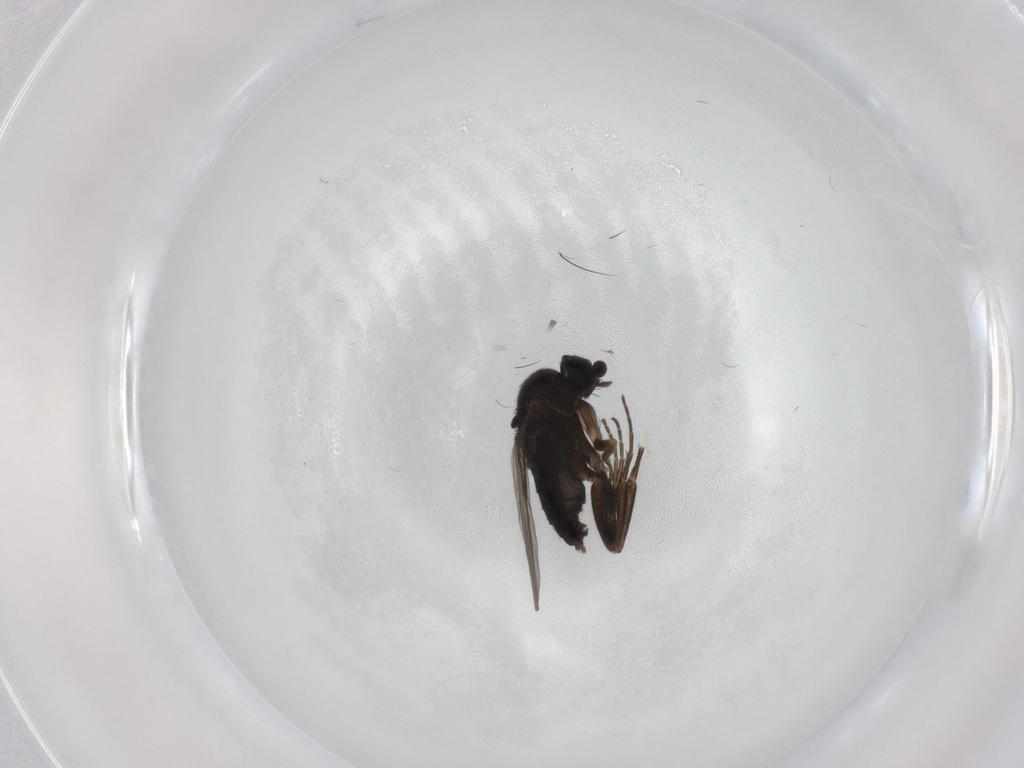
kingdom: Animalia
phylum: Arthropoda
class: Insecta
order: Diptera
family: Phoridae
